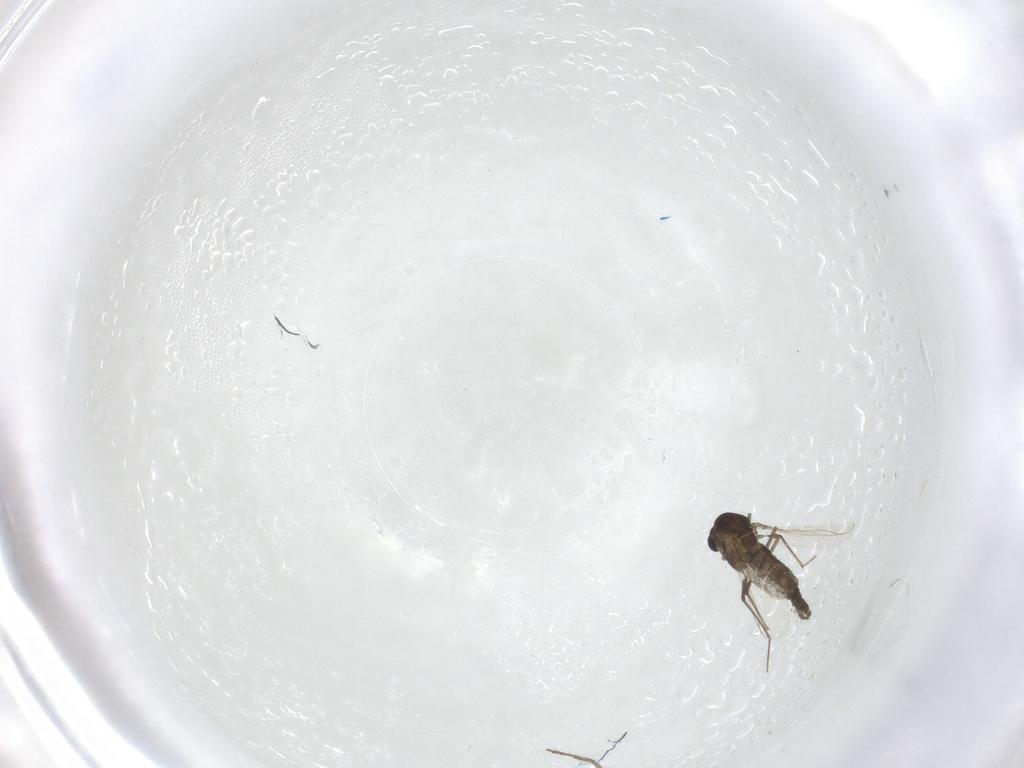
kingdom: Animalia
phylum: Arthropoda
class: Insecta
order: Diptera
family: Chironomidae
